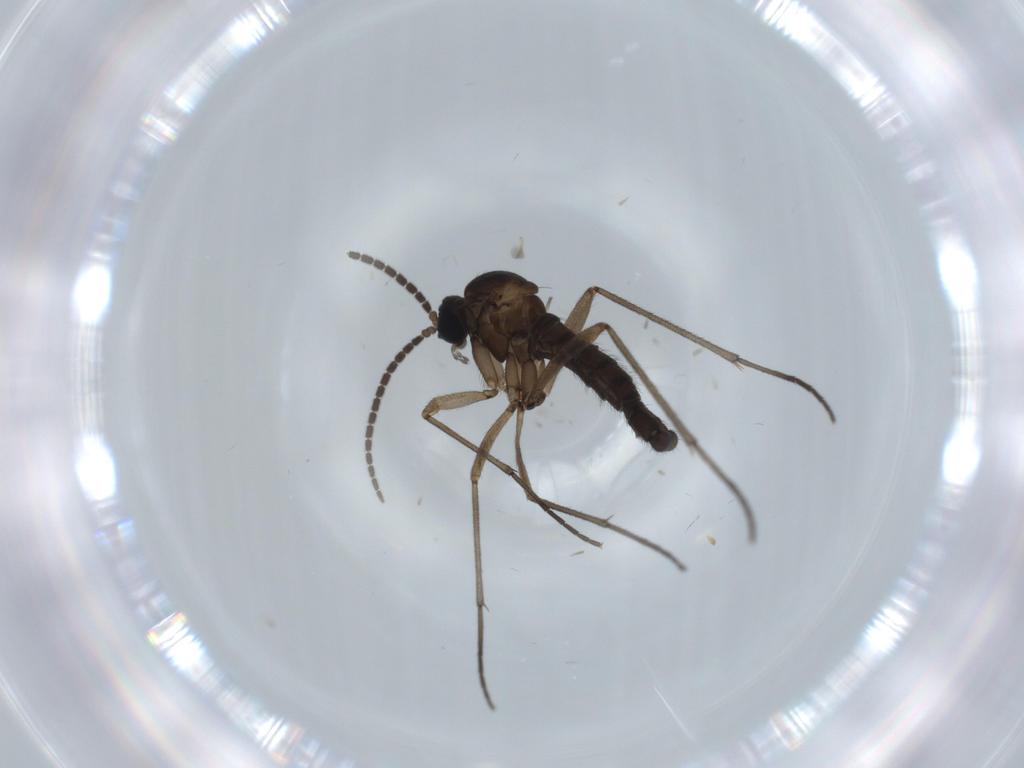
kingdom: Animalia
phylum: Arthropoda
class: Insecta
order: Diptera
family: Sciaridae
